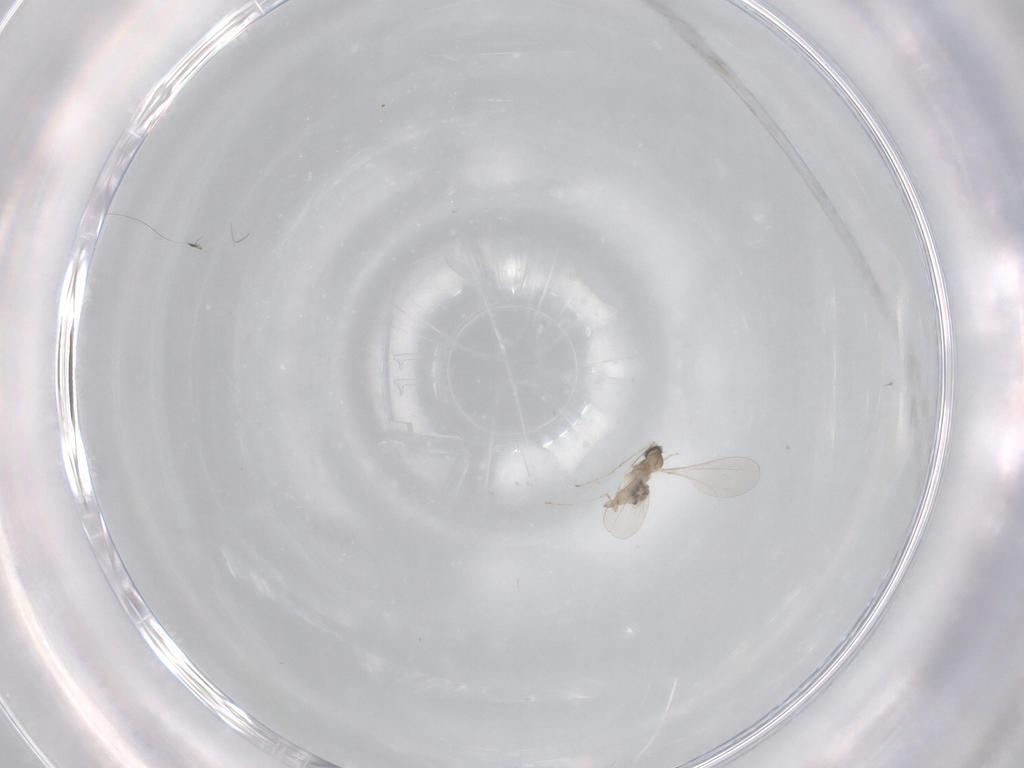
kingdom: Animalia
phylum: Arthropoda
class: Insecta
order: Diptera
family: Cecidomyiidae
